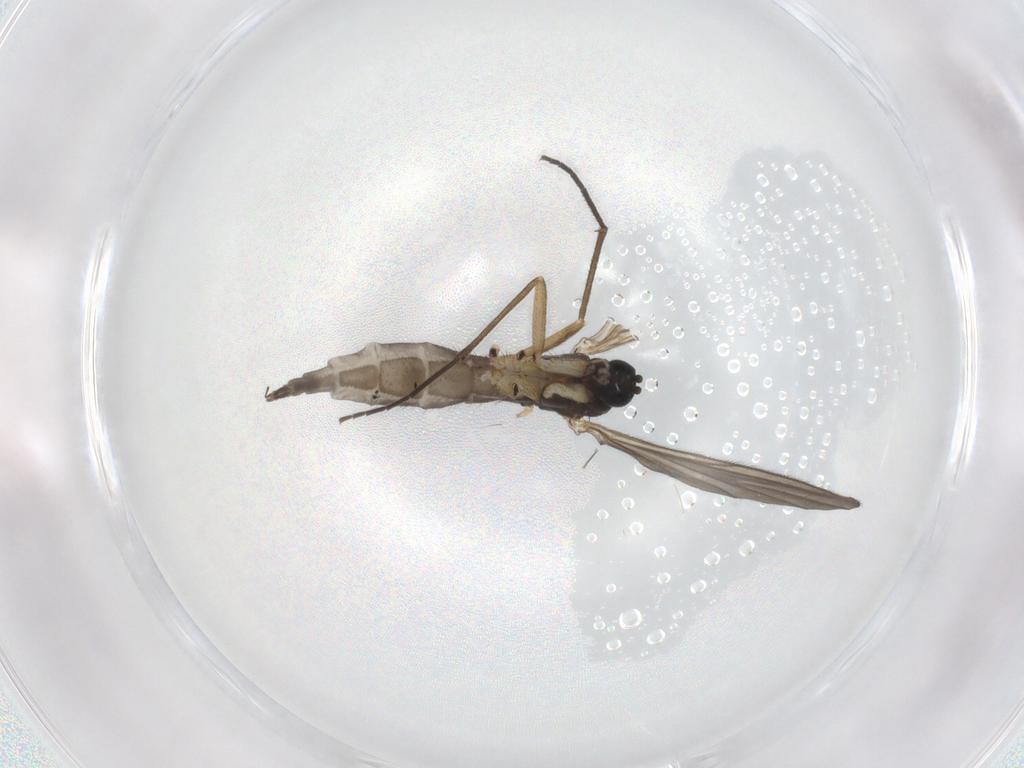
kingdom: Animalia
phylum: Arthropoda
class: Insecta
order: Diptera
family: Sciaridae
